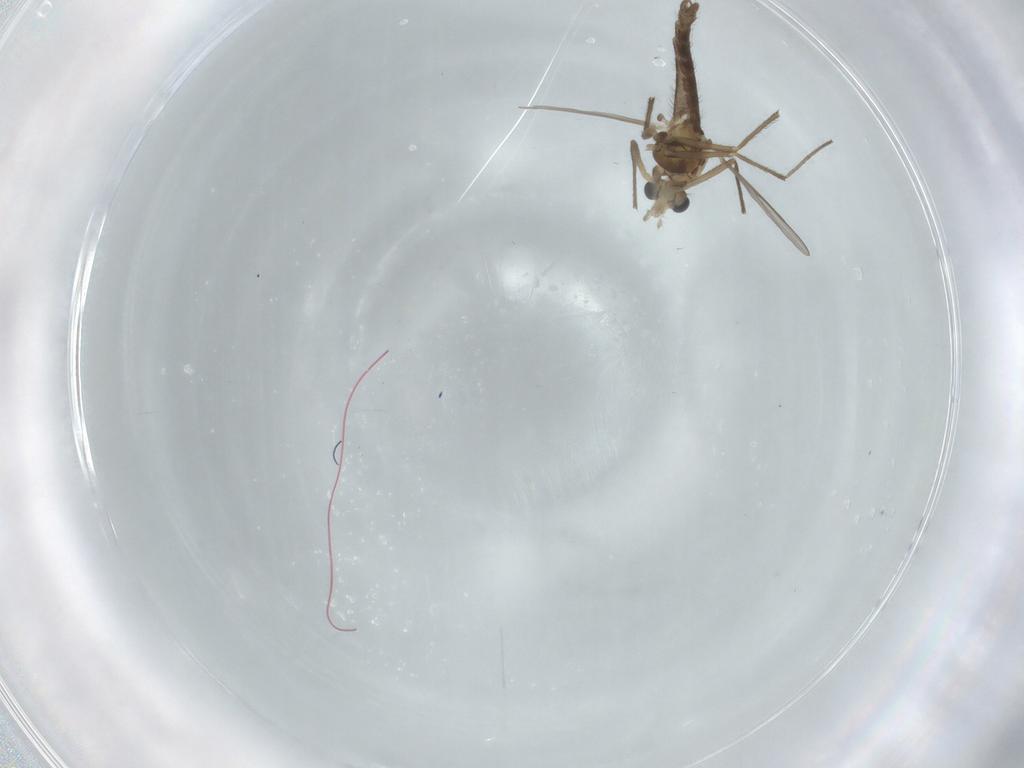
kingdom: Animalia
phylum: Arthropoda
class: Insecta
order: Diptera
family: Chironomidae
